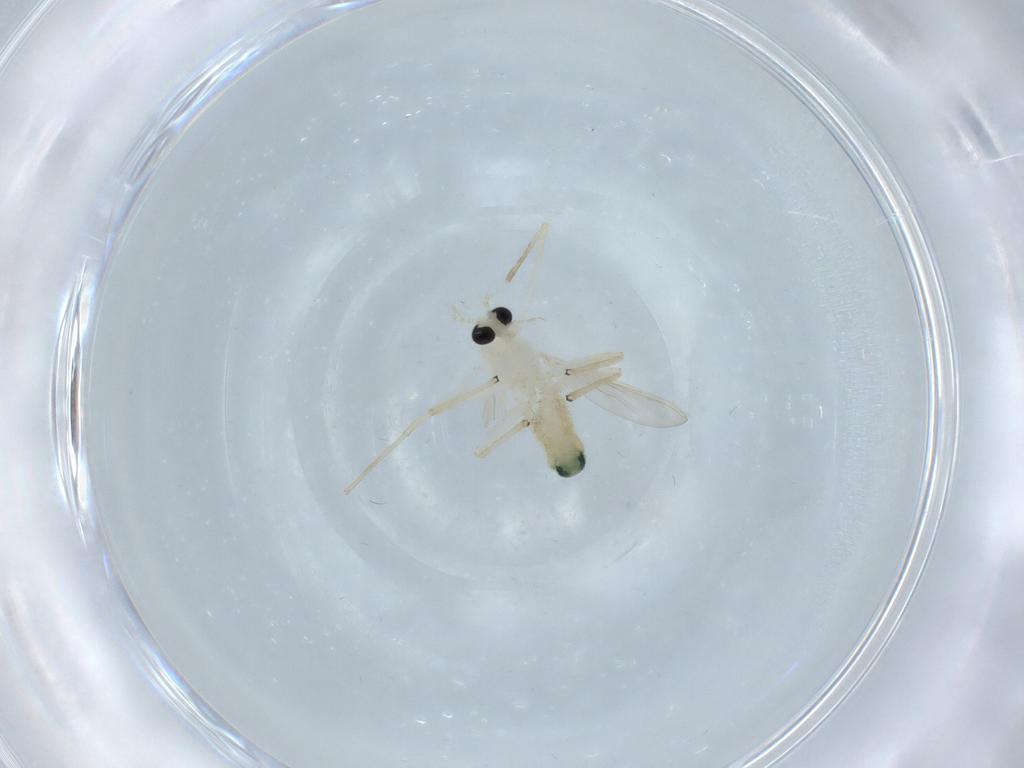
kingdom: Animalia
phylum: Arthropoda
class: Insecta
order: Diptera
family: Chironomidae
